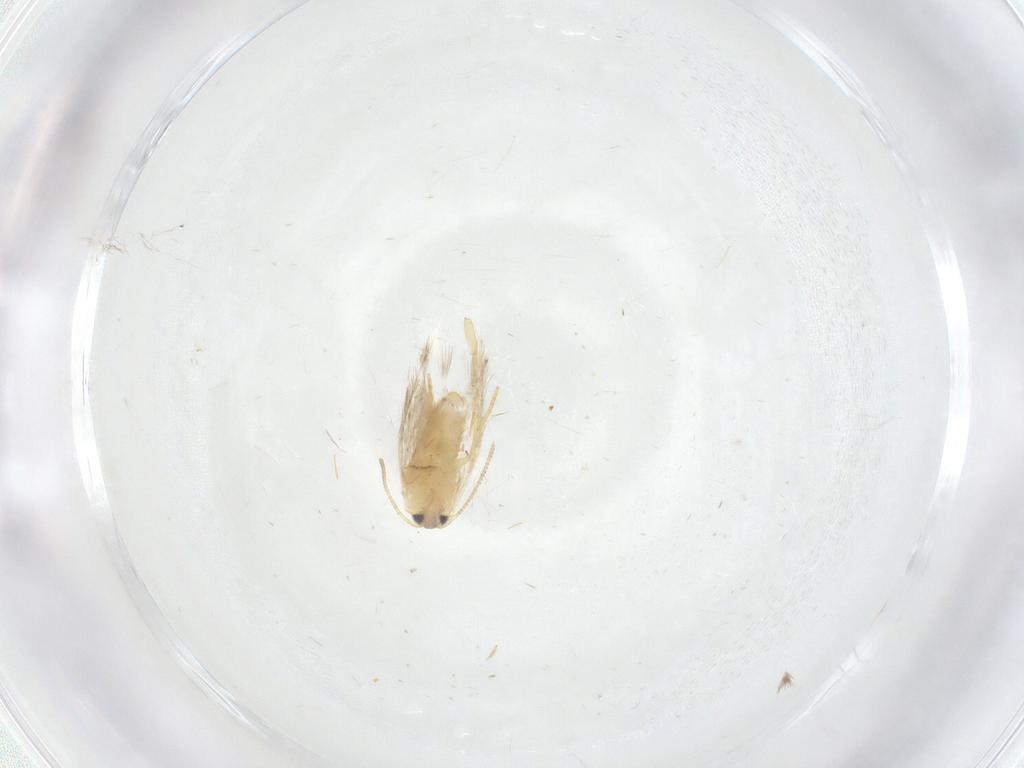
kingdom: Animalia
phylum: Arthropoda
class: Insecta
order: Lepidoptera
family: Nepticulidae
